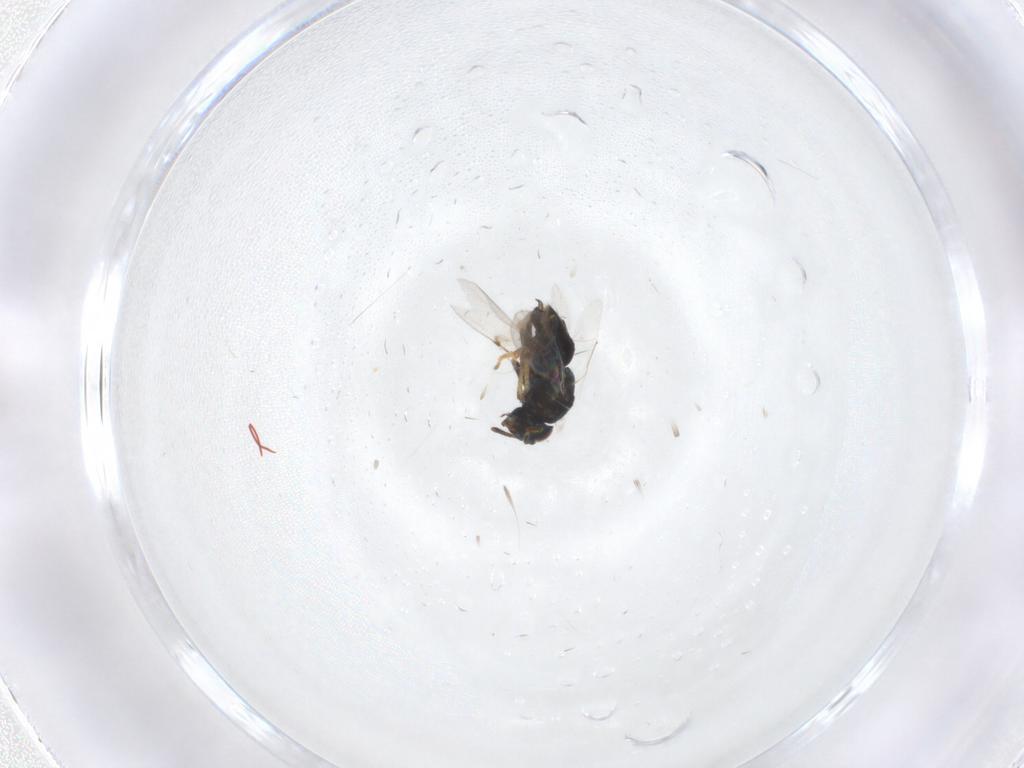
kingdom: Animalia
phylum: Arthropoda
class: Insecta
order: Hymenoptera
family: Encyrtidae
